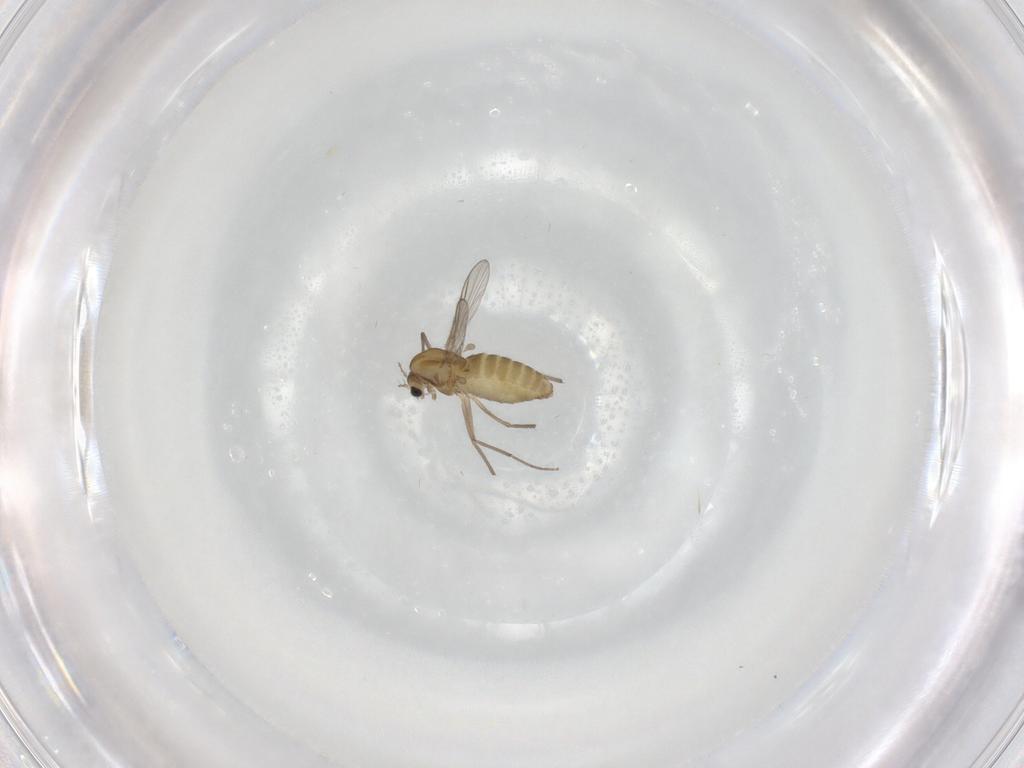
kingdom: Animalia
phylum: Arthropoda
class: Insecta
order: Diptera
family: Chironomidae
